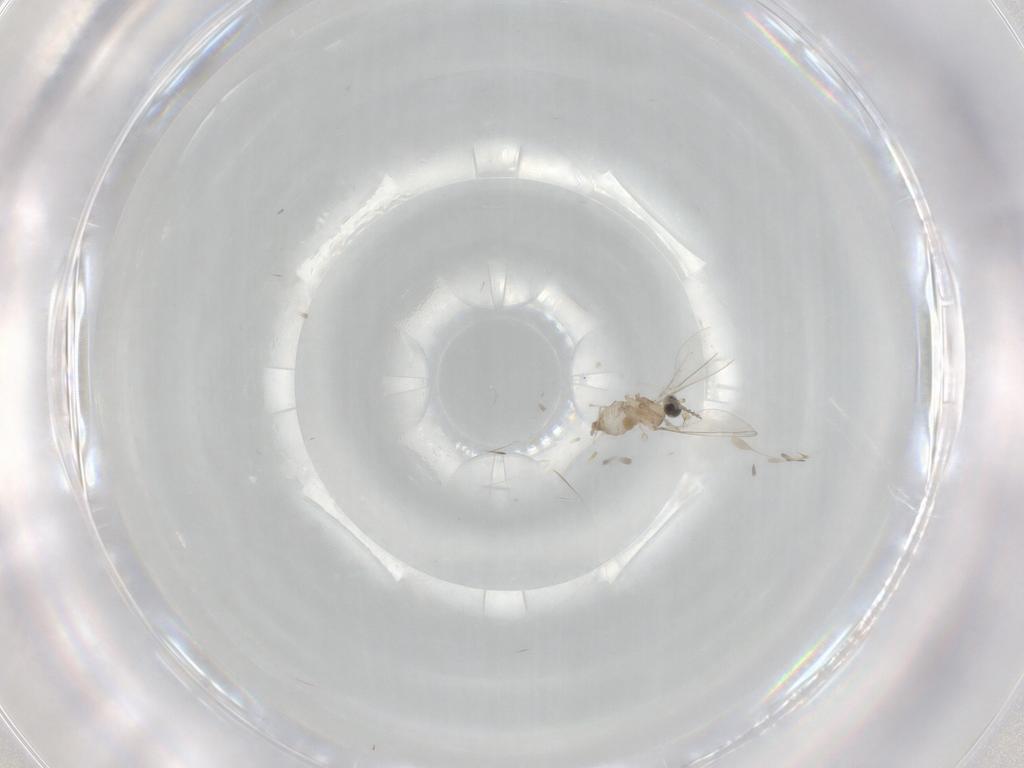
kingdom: Animalia
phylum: Arthropoda
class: Insecta
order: Diptera
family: Cecidomyiidae
